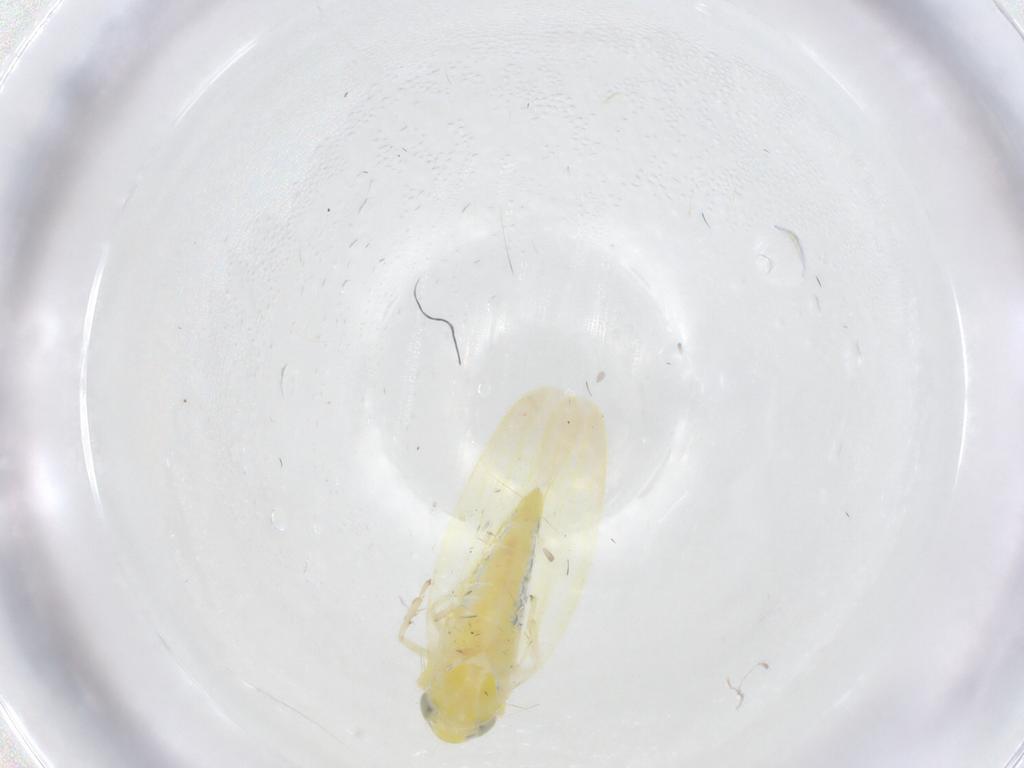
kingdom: Animalia
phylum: Arthropoda
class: Insecta
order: Hemiptera
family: Cicadellidae
